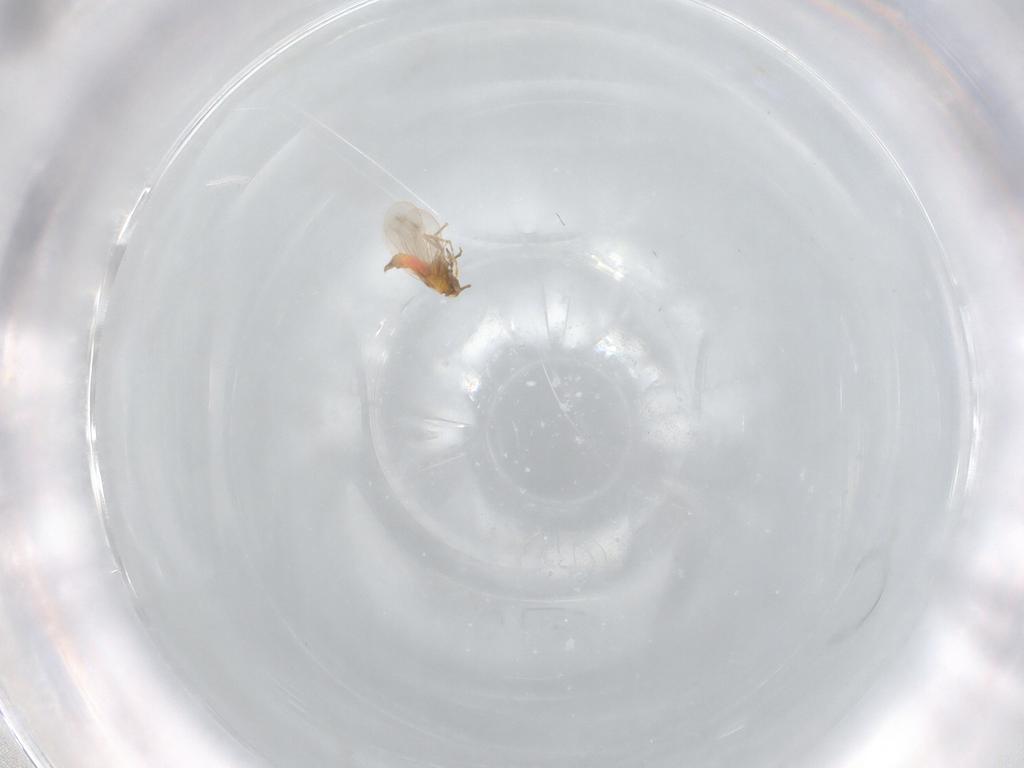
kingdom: Animalia
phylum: Arthropoda
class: Insecta
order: Hemiptera
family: Aleyrodidae
